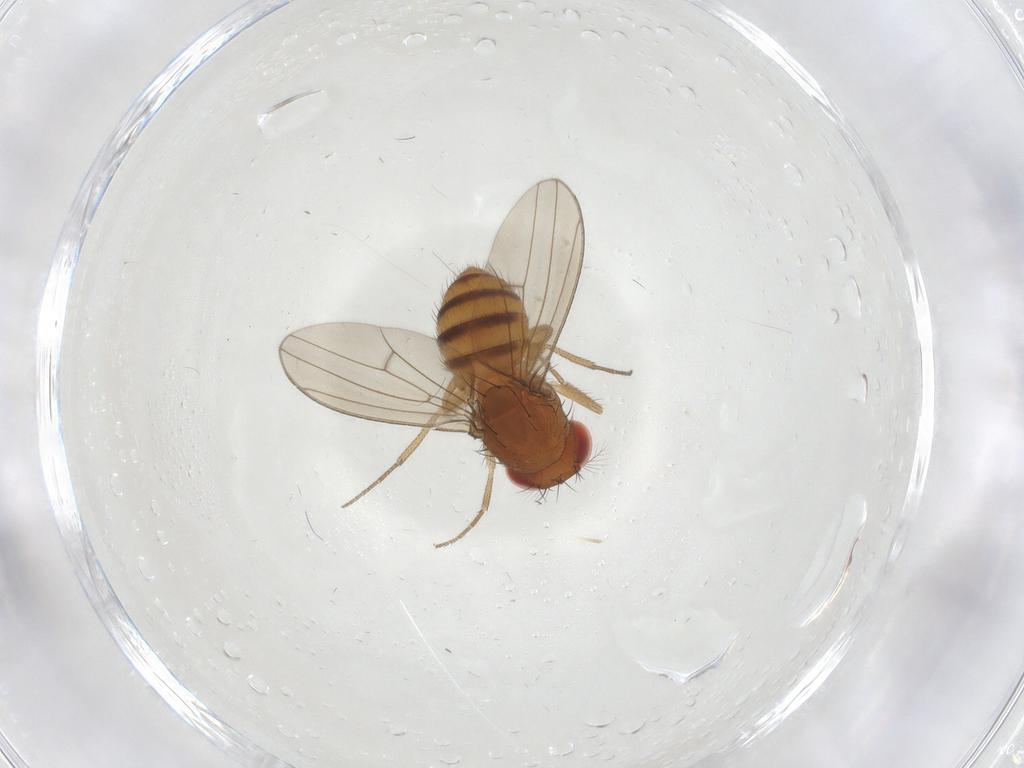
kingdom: Animalia
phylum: Arthropoda
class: Insecta
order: Diptera
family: Drosophilidae
